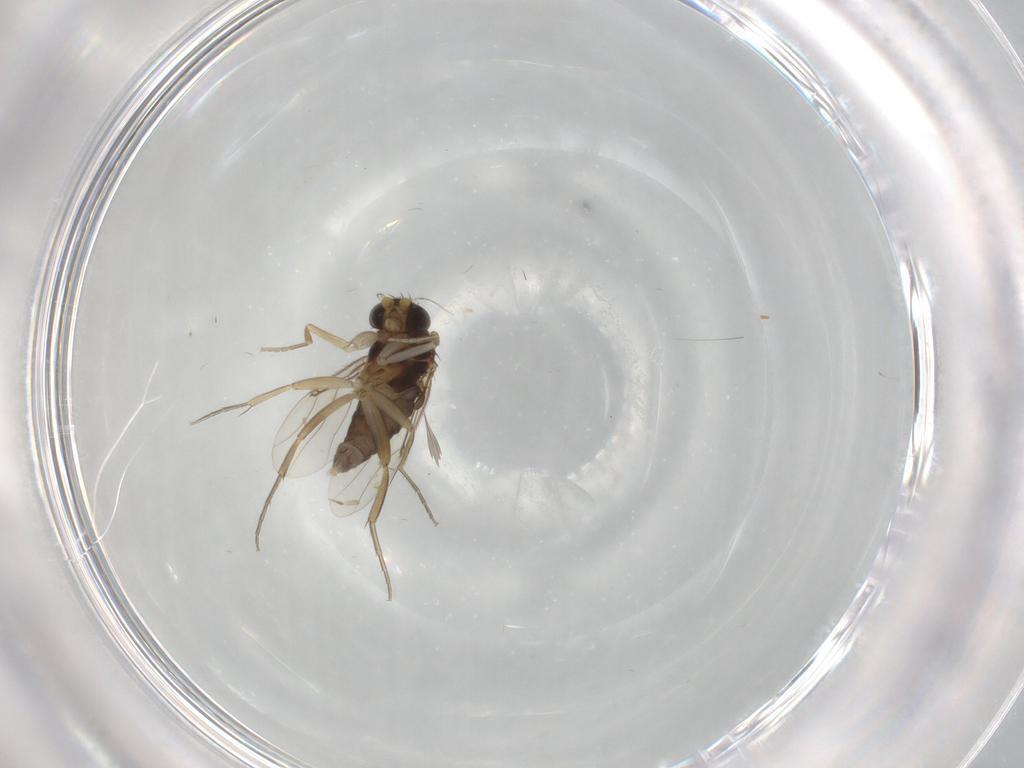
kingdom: Animalia
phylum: Arthropoda
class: Insecta
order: Diptera
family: Phoridae
